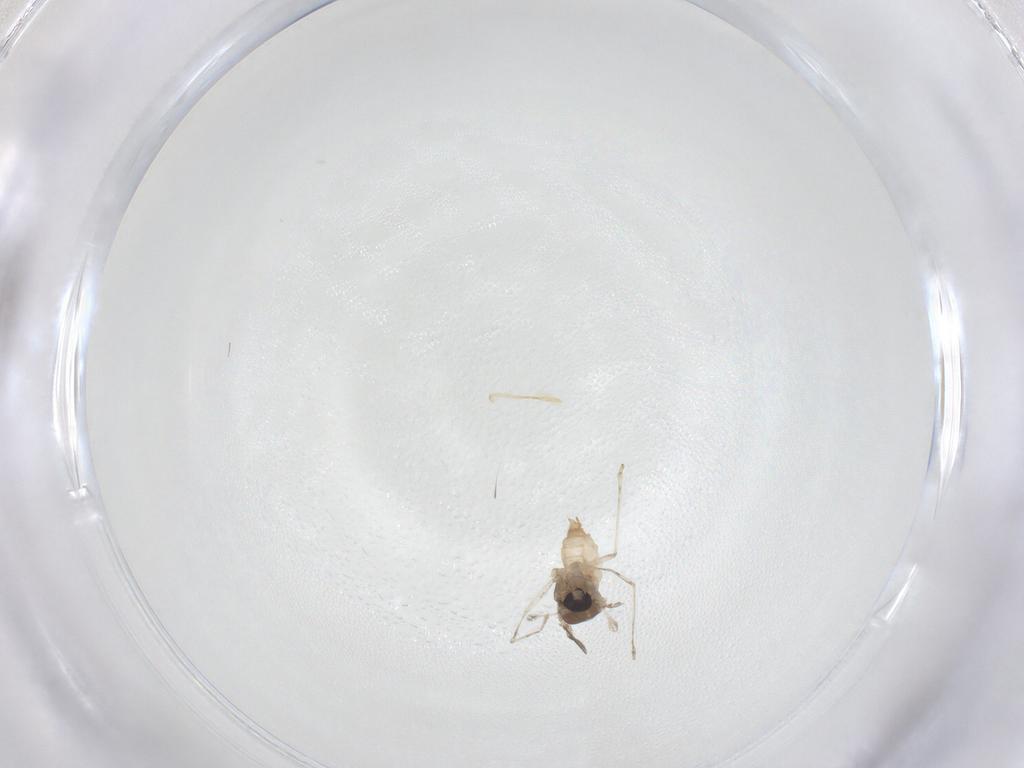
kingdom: Animalia
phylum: Arthropoda
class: Insecta
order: Diptera
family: Cecidomyiidae
